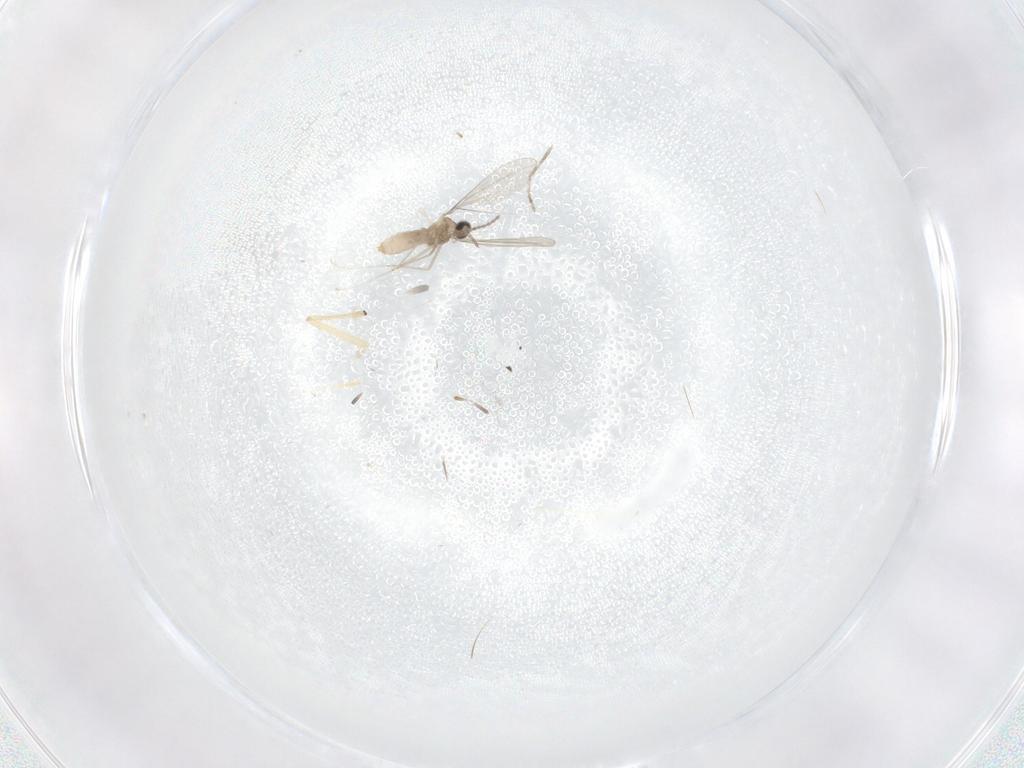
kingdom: Animalia
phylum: Arthropoda
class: Insecta
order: Diptera
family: Chironomidae
